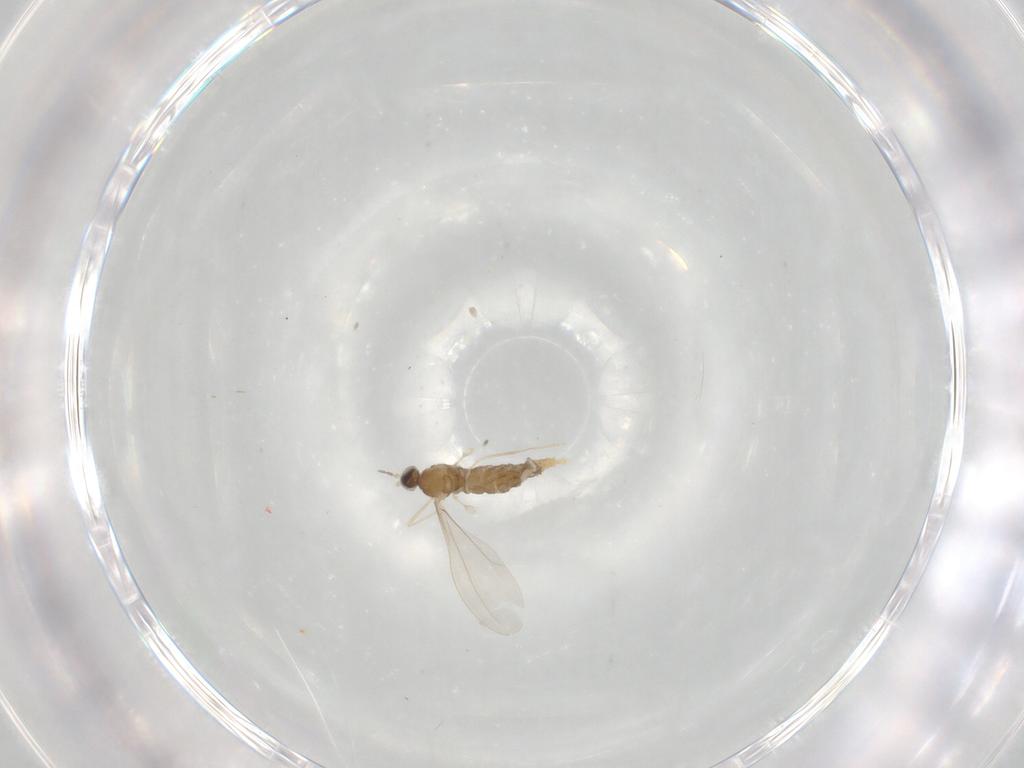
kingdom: Animalia
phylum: Arthropoda
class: Insecta
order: Diptera
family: Cecidomyiidae
